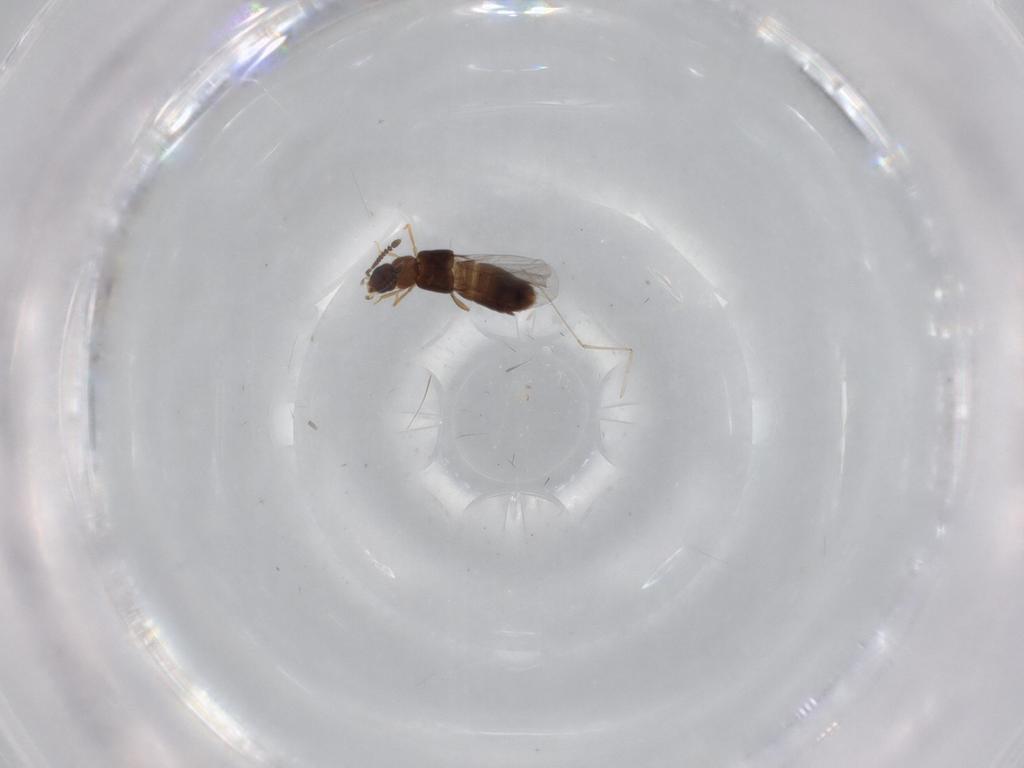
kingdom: Animalia
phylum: Arthropoda
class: Insecta
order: Coleoptera
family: Staphylinidae
